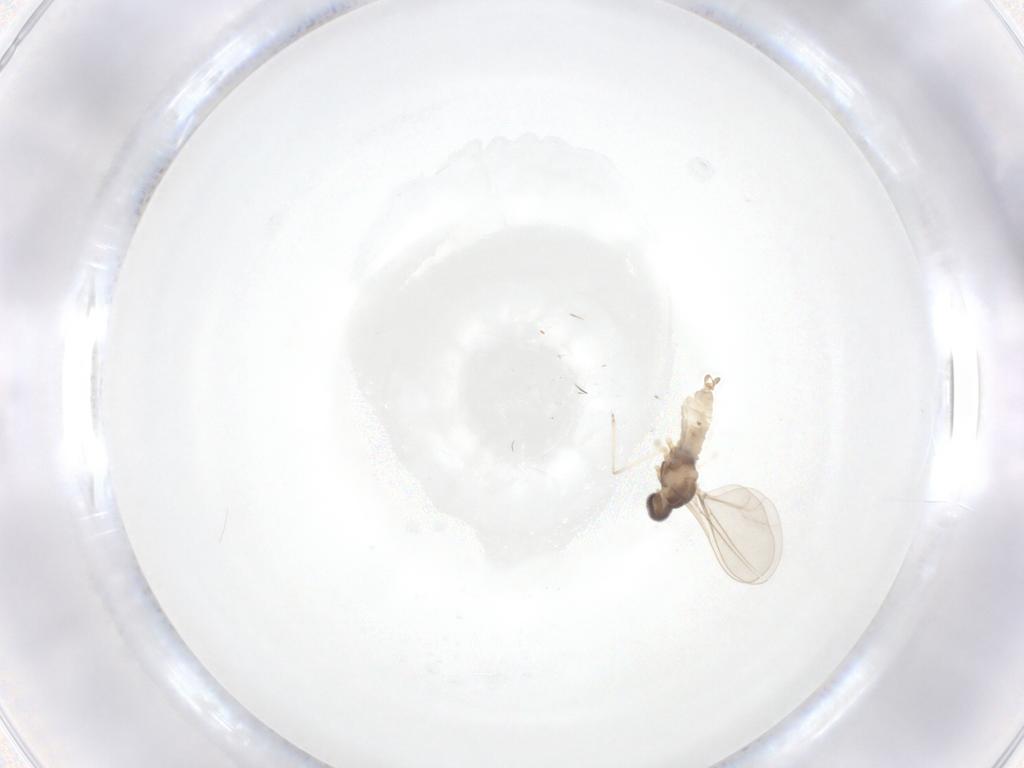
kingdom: Animalia
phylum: Arthropoda
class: Insecta
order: Diptera
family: Cecidomyiidae
